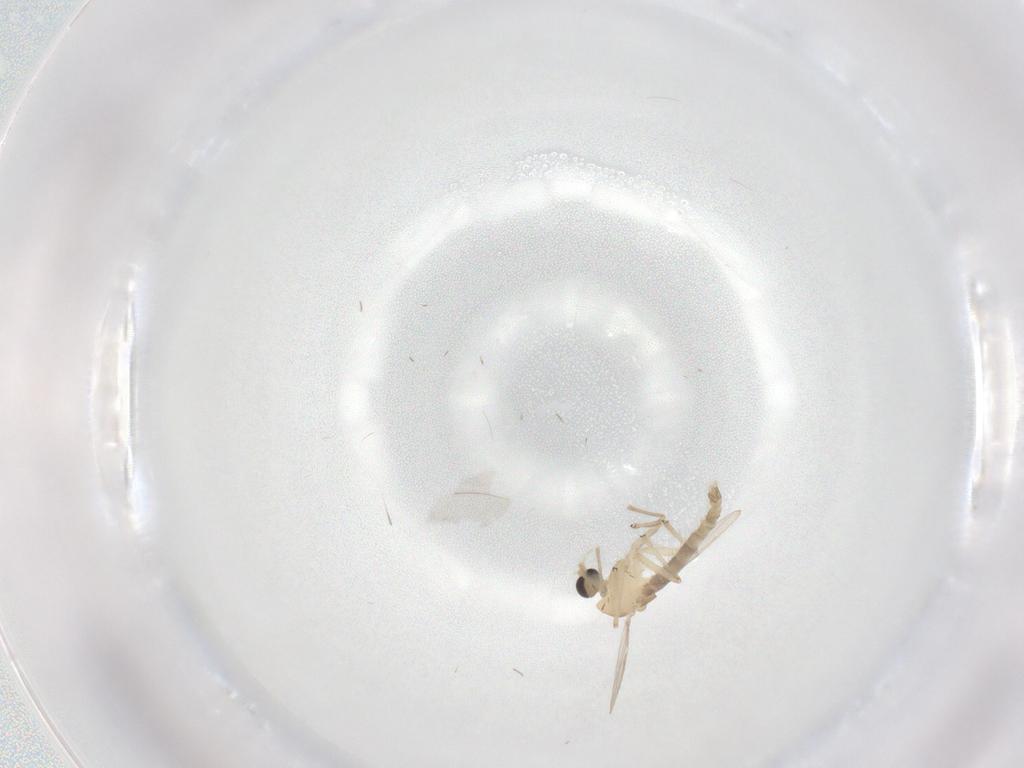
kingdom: Animalia
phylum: Arthropoda
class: Insecta
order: Diptera
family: Chironomidae
